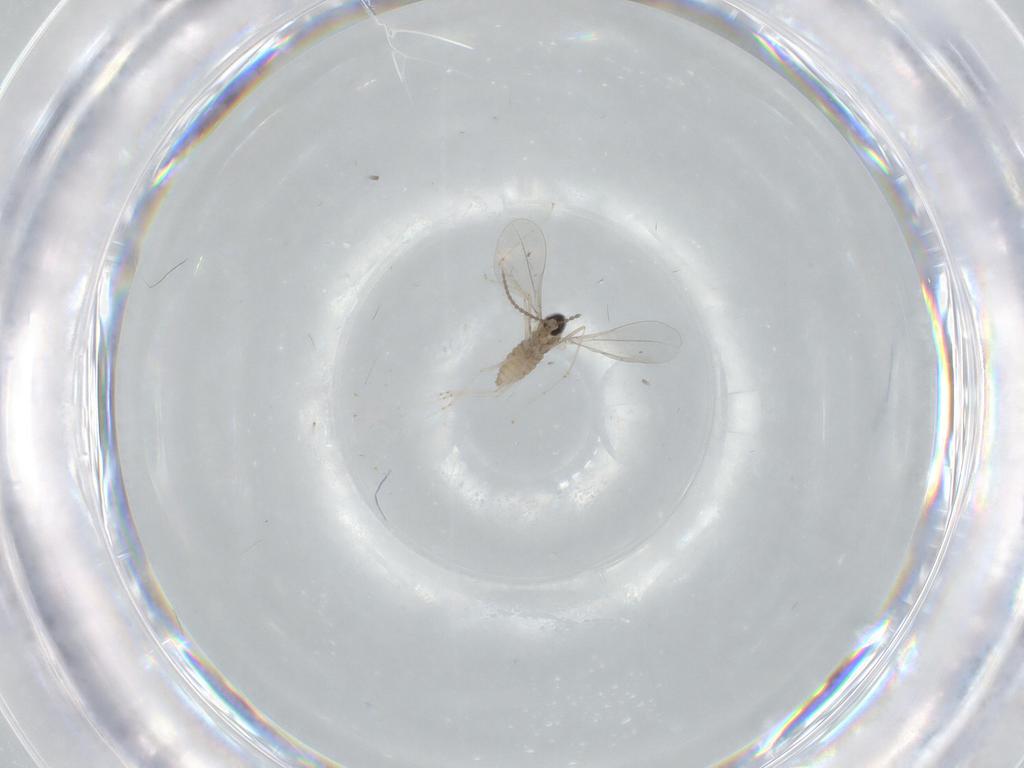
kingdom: Animalia
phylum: Arthropoda
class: Insecta
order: Diptera
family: Cecidomyiidae
